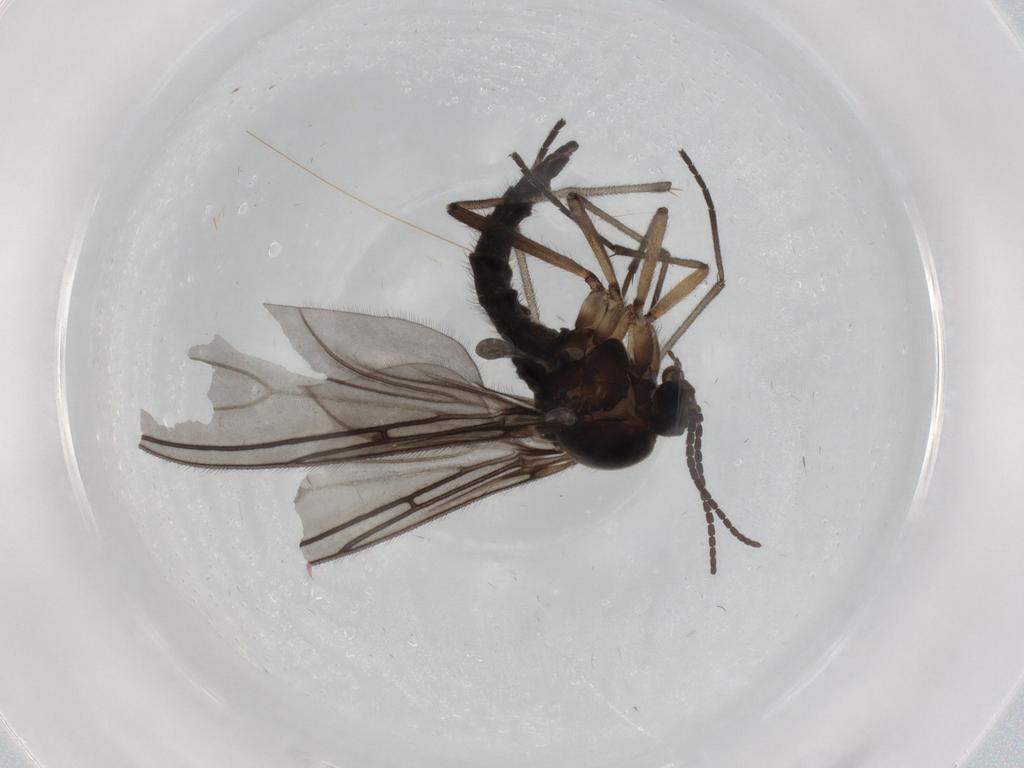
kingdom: Animalia
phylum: Arthropoda
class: Insecta
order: Diptera
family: Sciaridae
